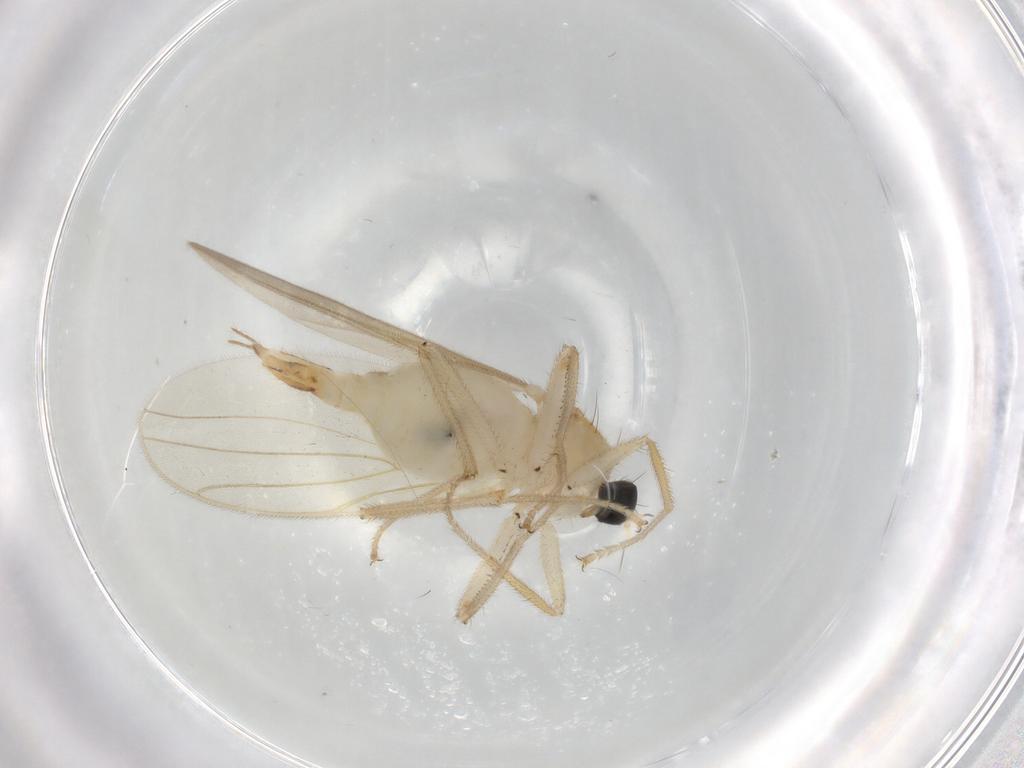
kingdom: Animalia
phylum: Arthropoda
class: Insecta
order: Diptera
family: Hybotidae
